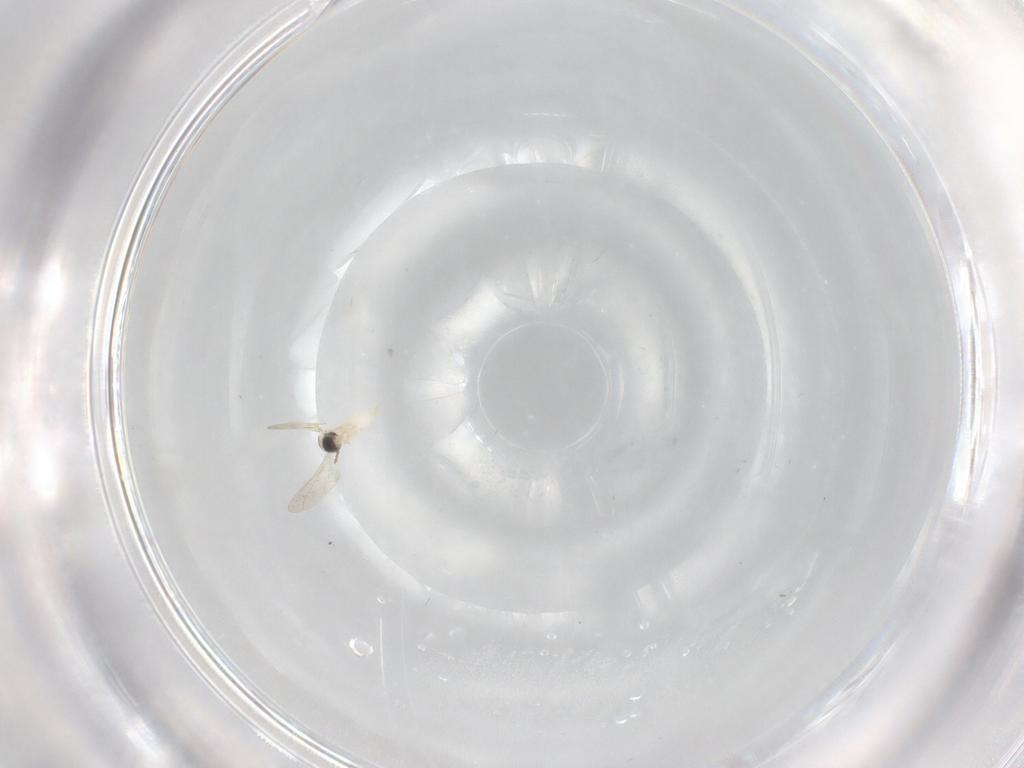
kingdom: Animalia
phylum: Arthropoda
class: Insecta
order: Diptera
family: Cecidomyiidae
